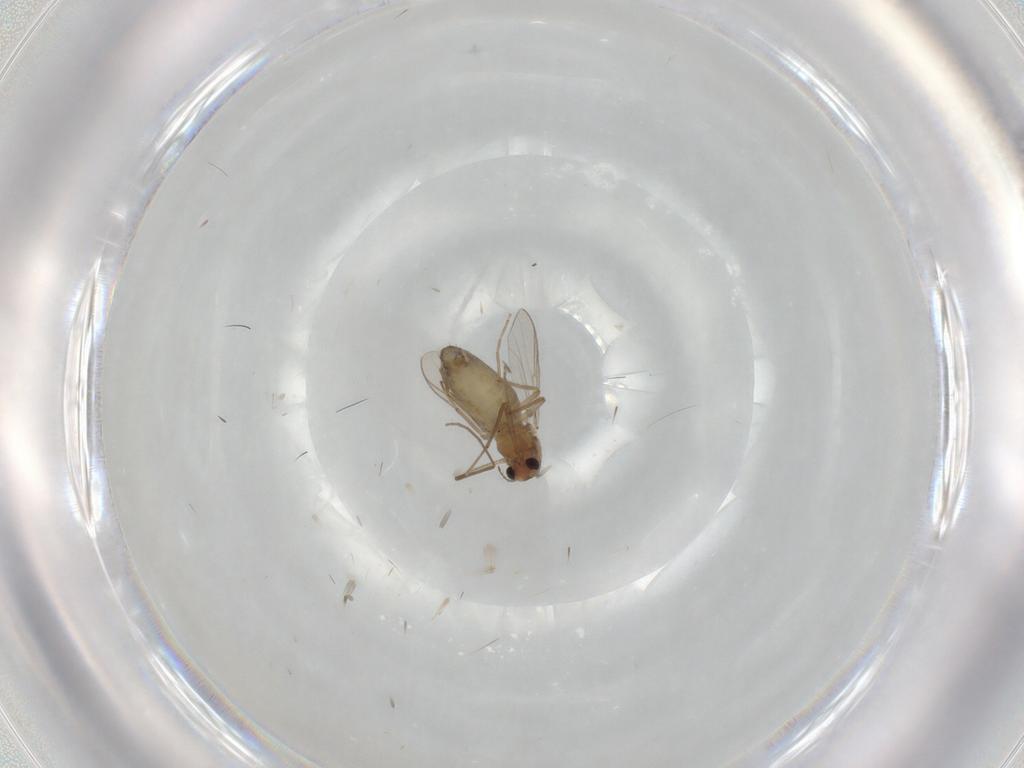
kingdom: Animalia
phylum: Arthropoda
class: Insecta
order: Diptera
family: Chironomidae
